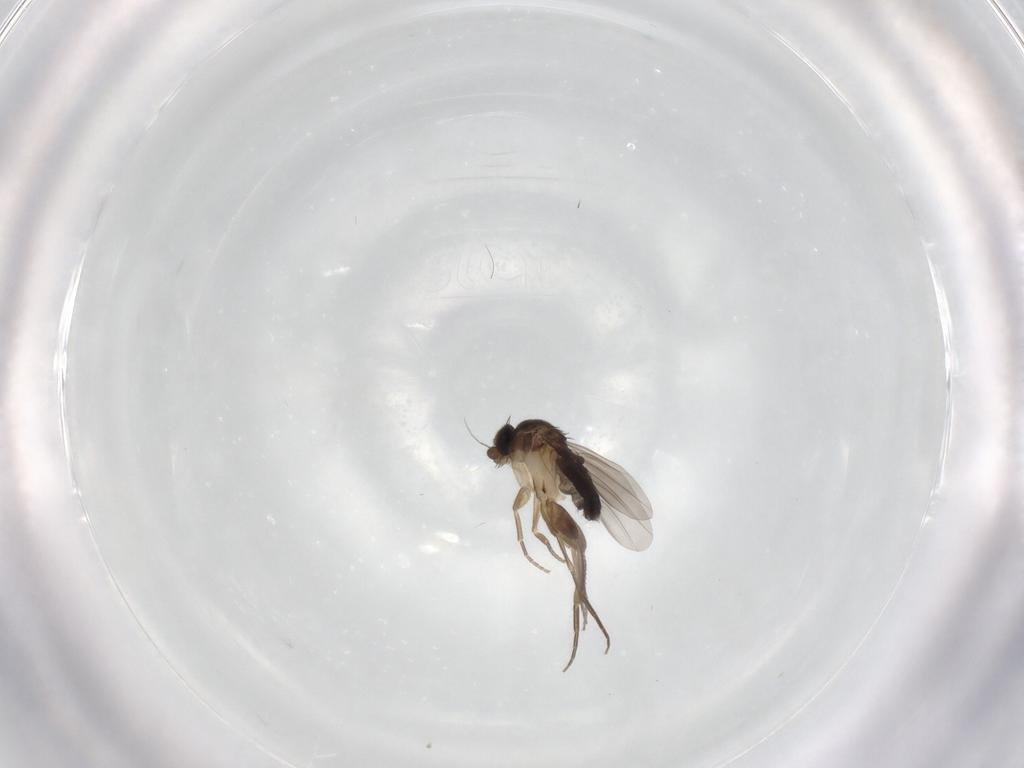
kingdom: Animalia
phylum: Arthropoda
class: Insecta
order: Diptera
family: Phoridae
